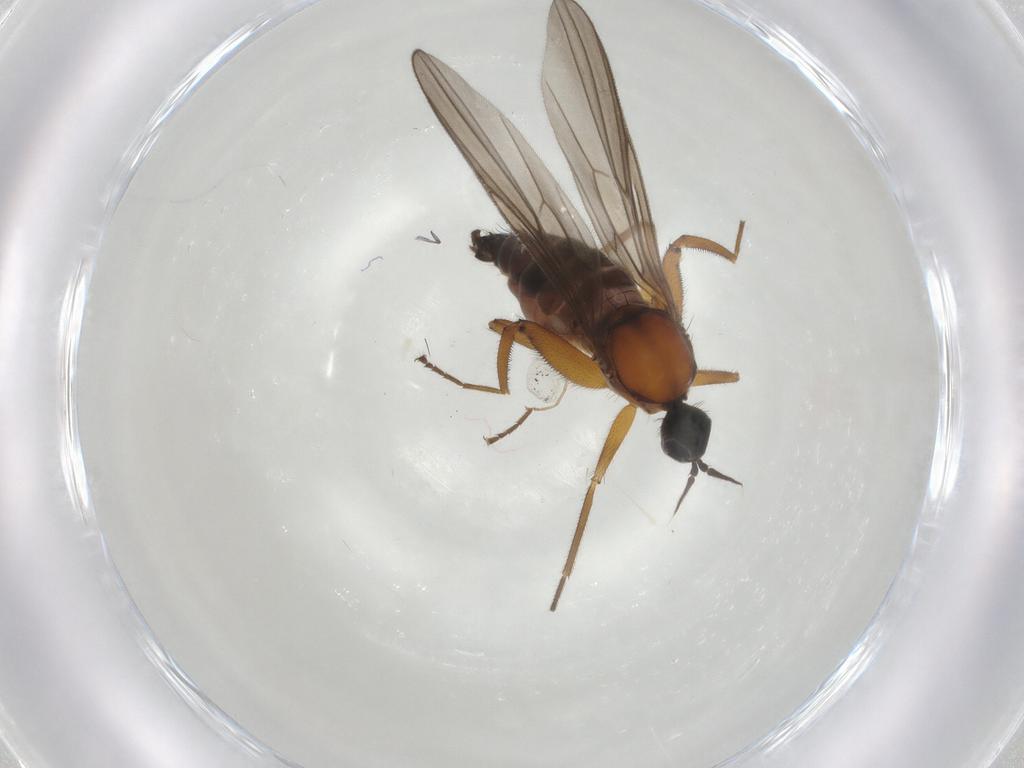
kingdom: Animalia
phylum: Arthropoda
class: Insecta
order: Diptera
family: Hybotidae
